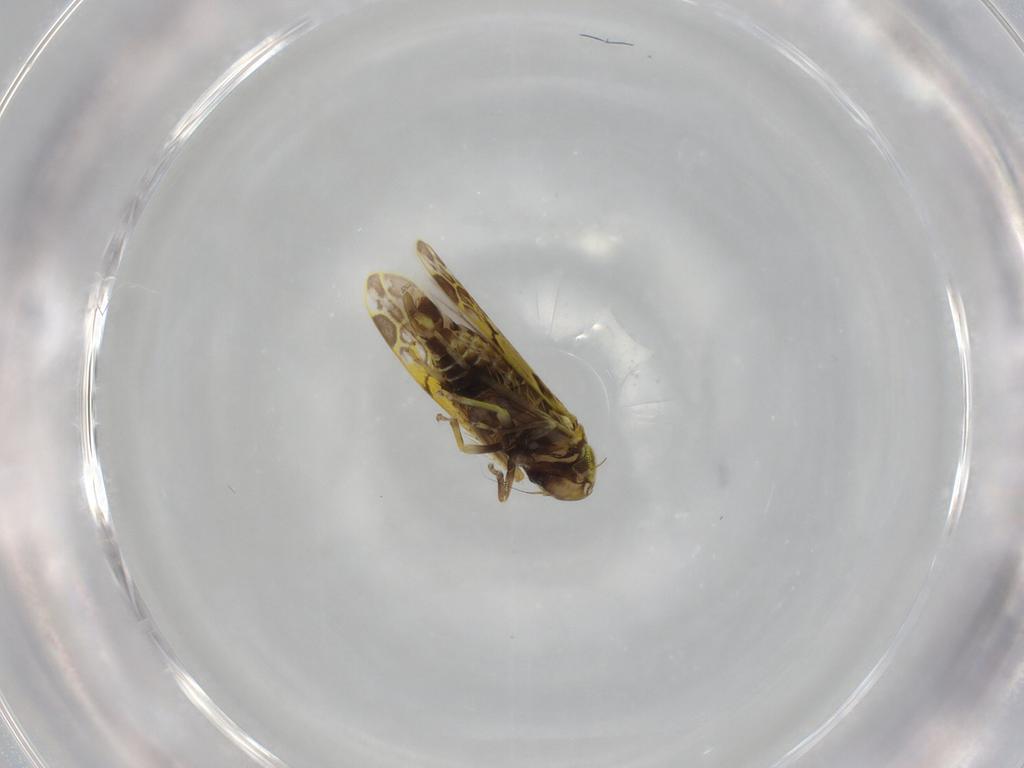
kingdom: Animalia
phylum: Arthropoda
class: Insecta
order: Hemiptera
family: Cicadellidae
